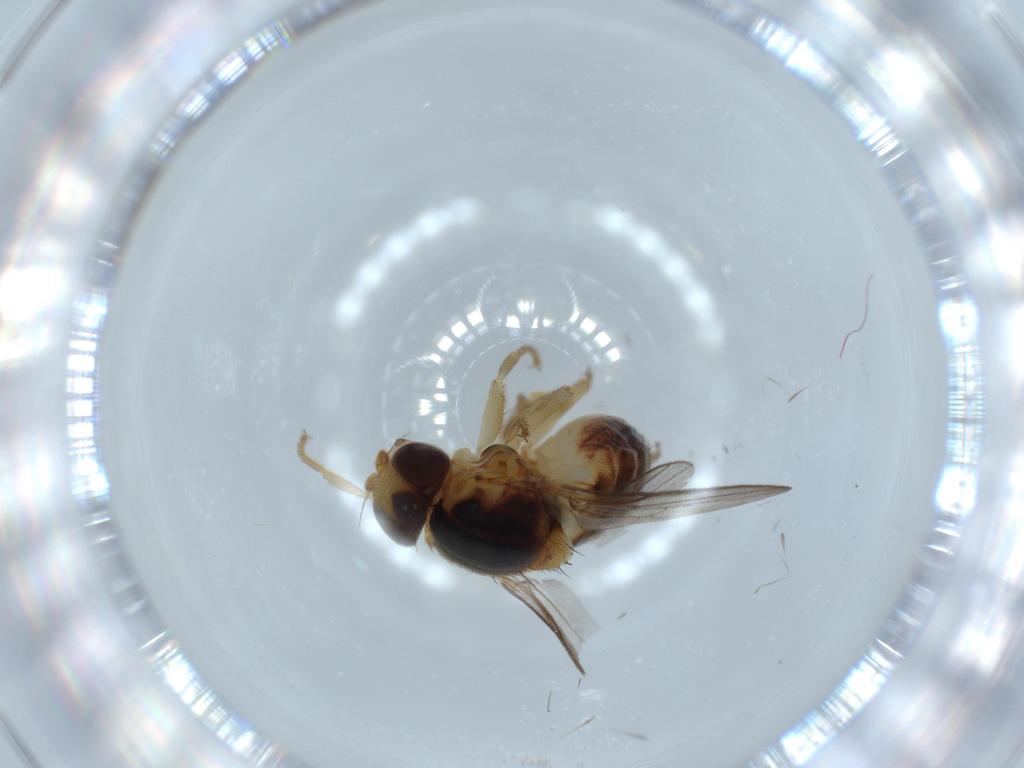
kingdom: Animalia
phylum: Arthropoda
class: Insecta
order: Diptera
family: Chloropidae
